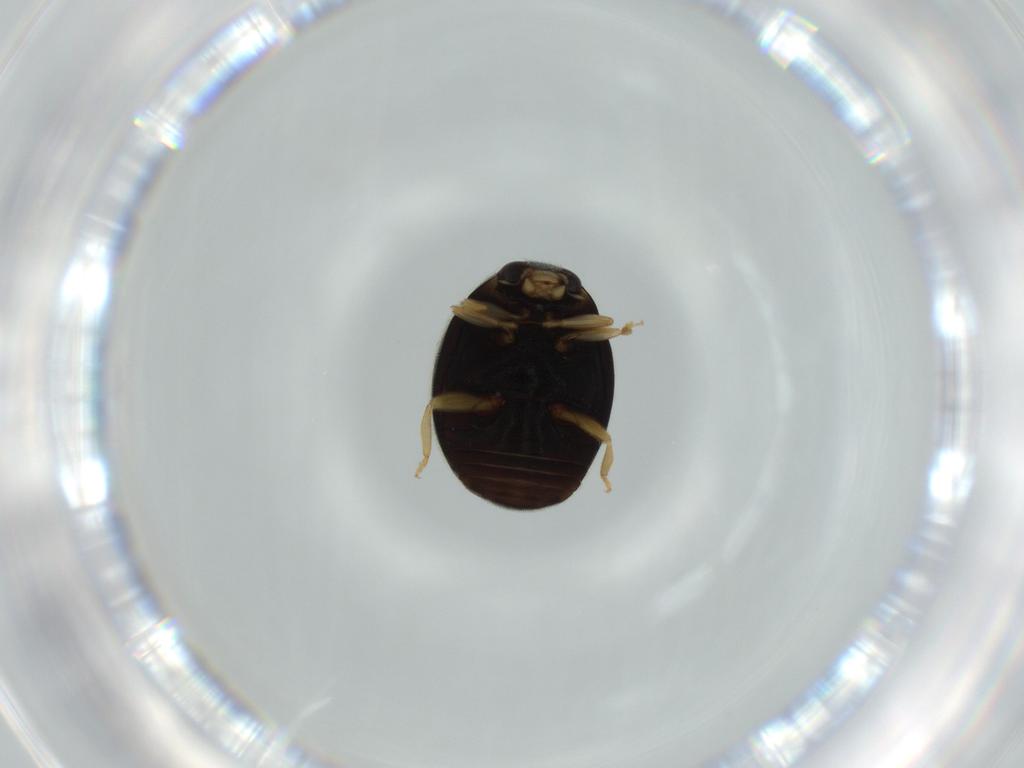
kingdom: Animalia
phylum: Arthropoda
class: Insecta
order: Coleoptera
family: Coccinellidae
